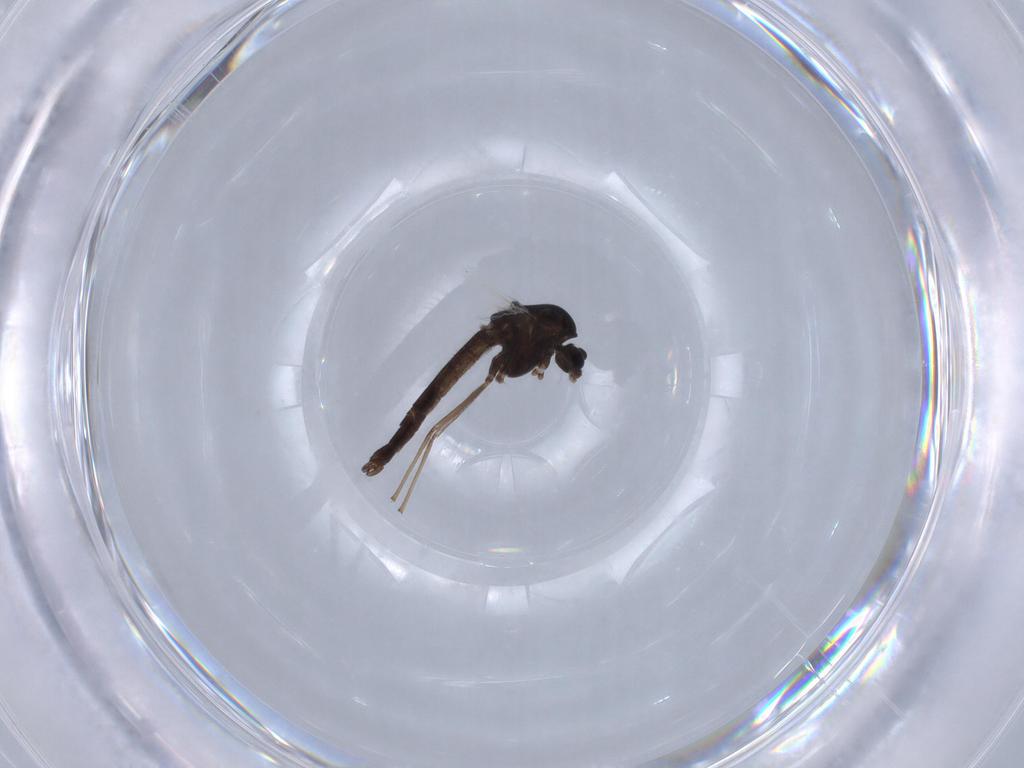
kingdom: Animalia
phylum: Arthropoda
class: Insecta
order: Diptera
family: Chironomidae
